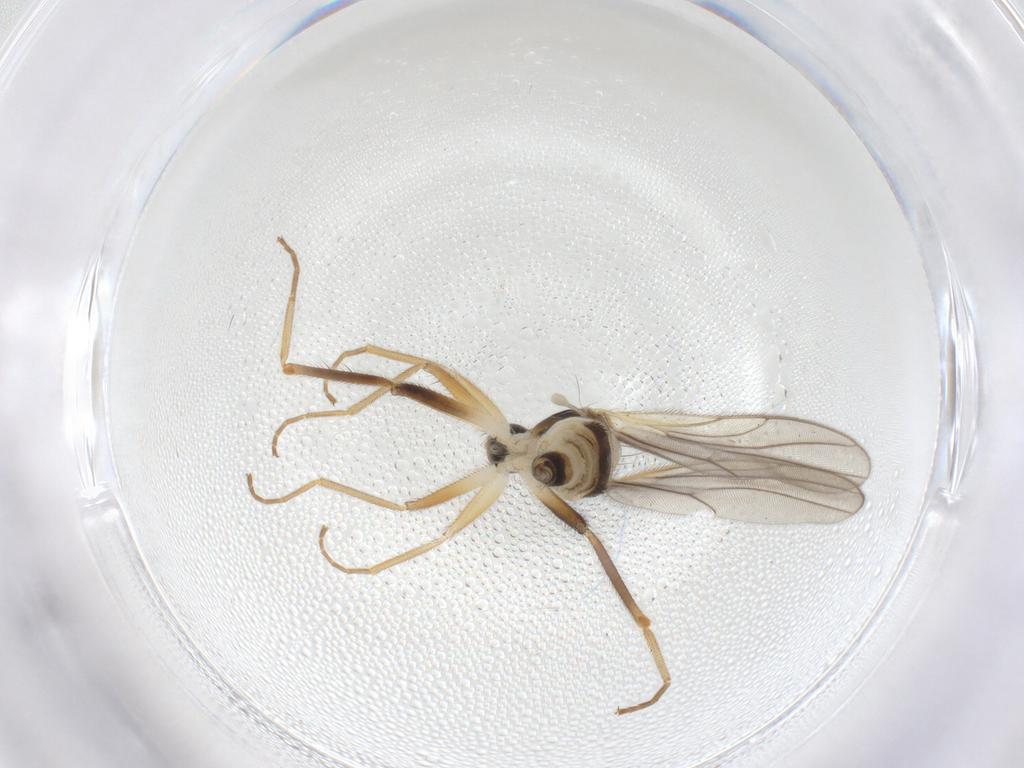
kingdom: Animalia
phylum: Arthropoda
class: Insecta
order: Diptera
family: Hybotidae
